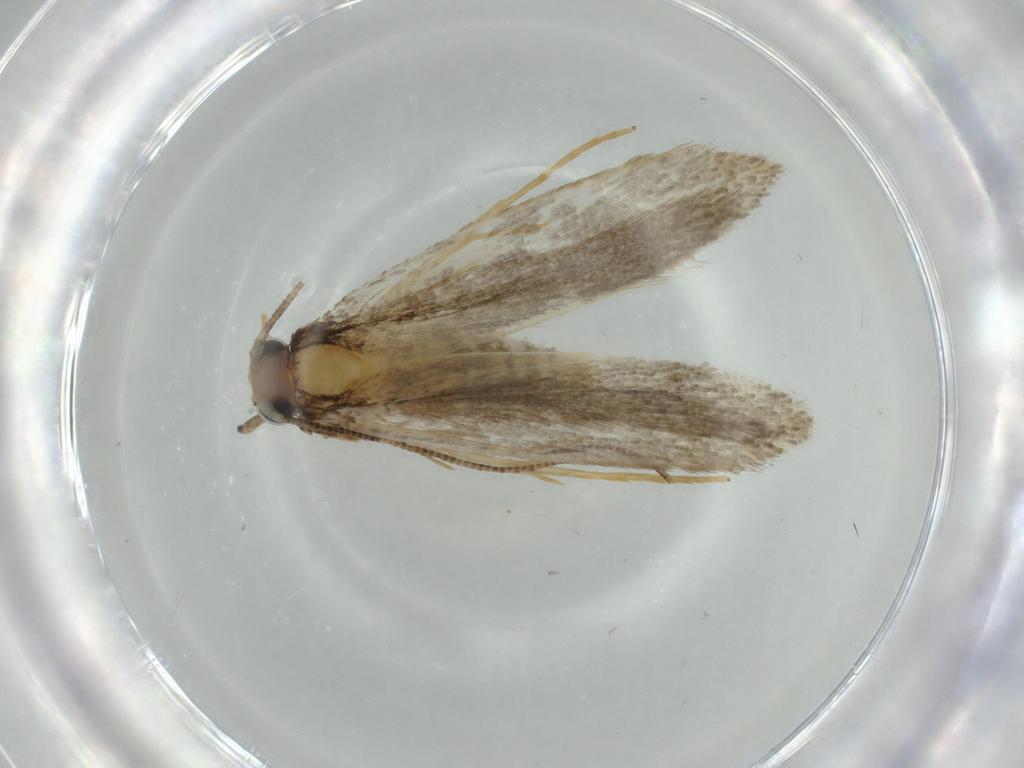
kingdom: Animalia
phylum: Arthropoda
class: Insecta
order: Lepidoptera
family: Tineidae
